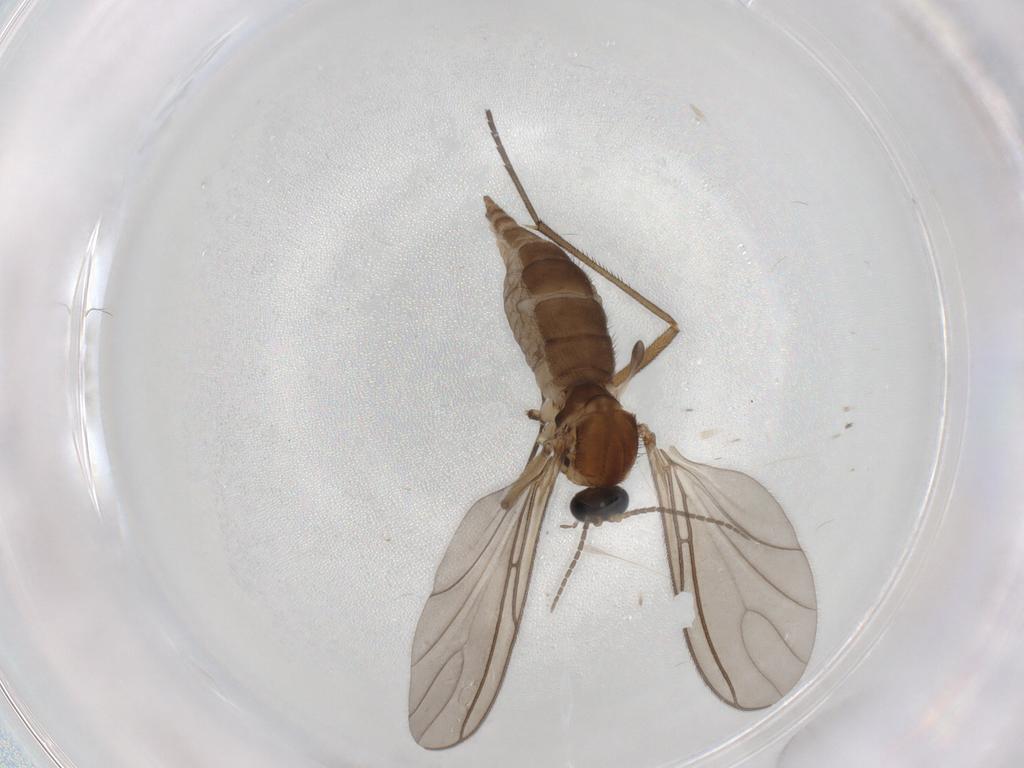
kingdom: Animalia
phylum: Arthropoda
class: Insecta
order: Diptera
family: Sciaridae
